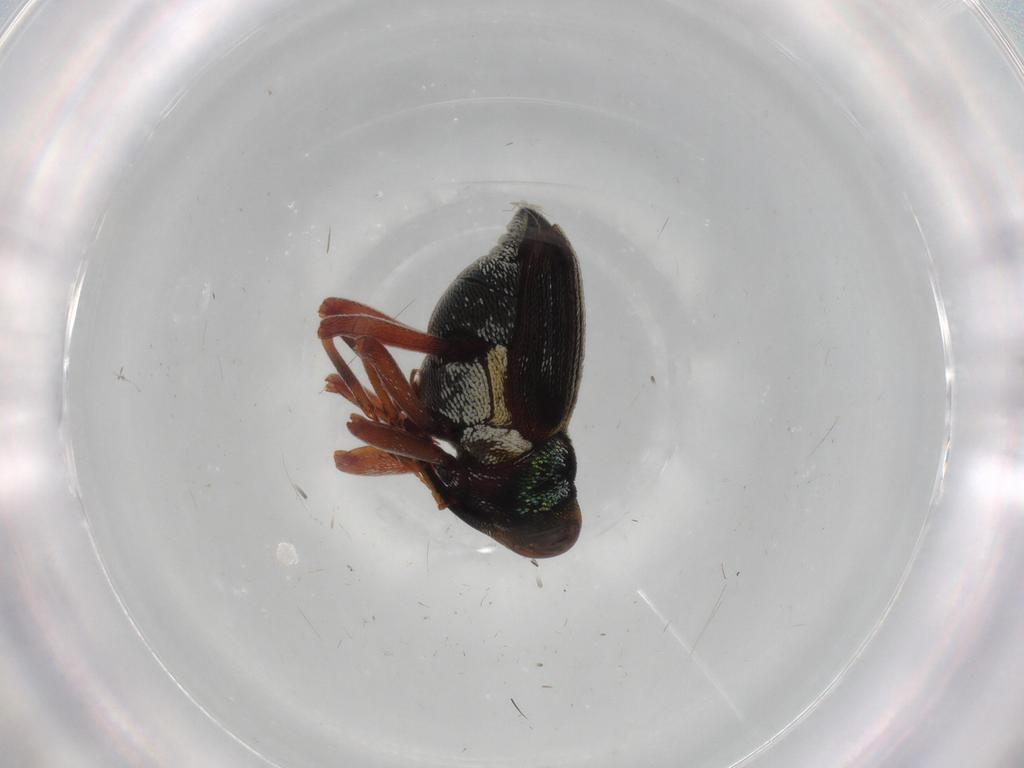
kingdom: Animalia
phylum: Arthropoda
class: Insecta
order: Coleoptera
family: Curculionidae
